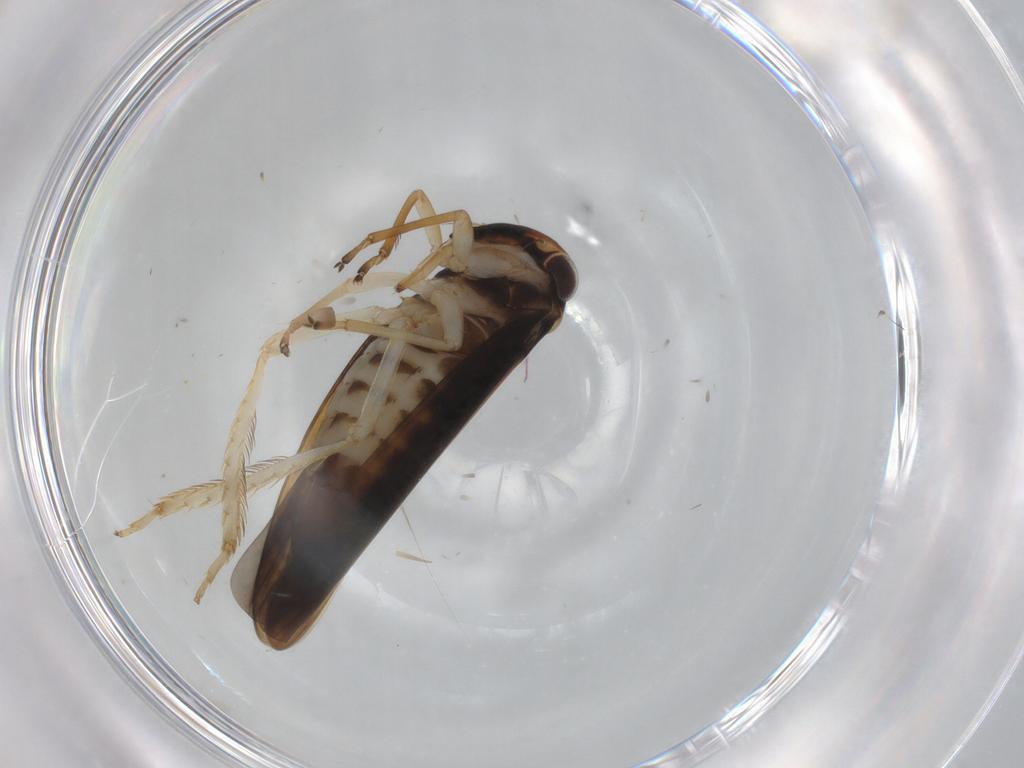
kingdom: Animalia
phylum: Arthropoda
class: Insecta
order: Hemiptera
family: Cicadellidae
